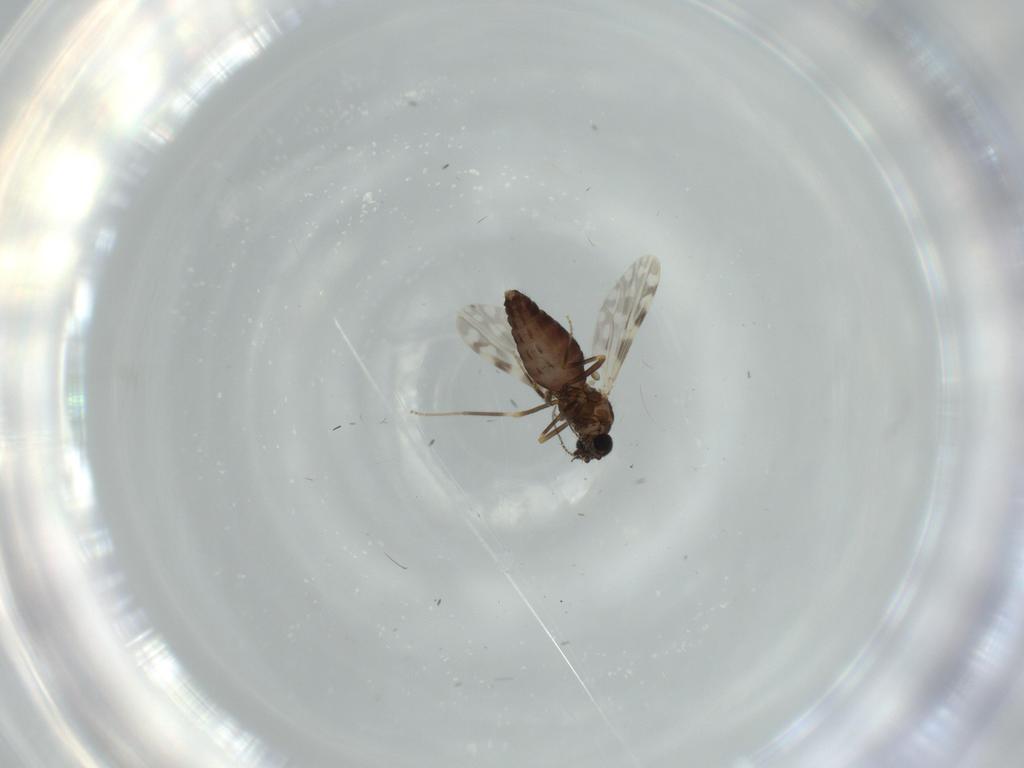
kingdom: Animalia
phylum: Arthropoda
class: Insecta
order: Diptera
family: Ceratopogonidae
